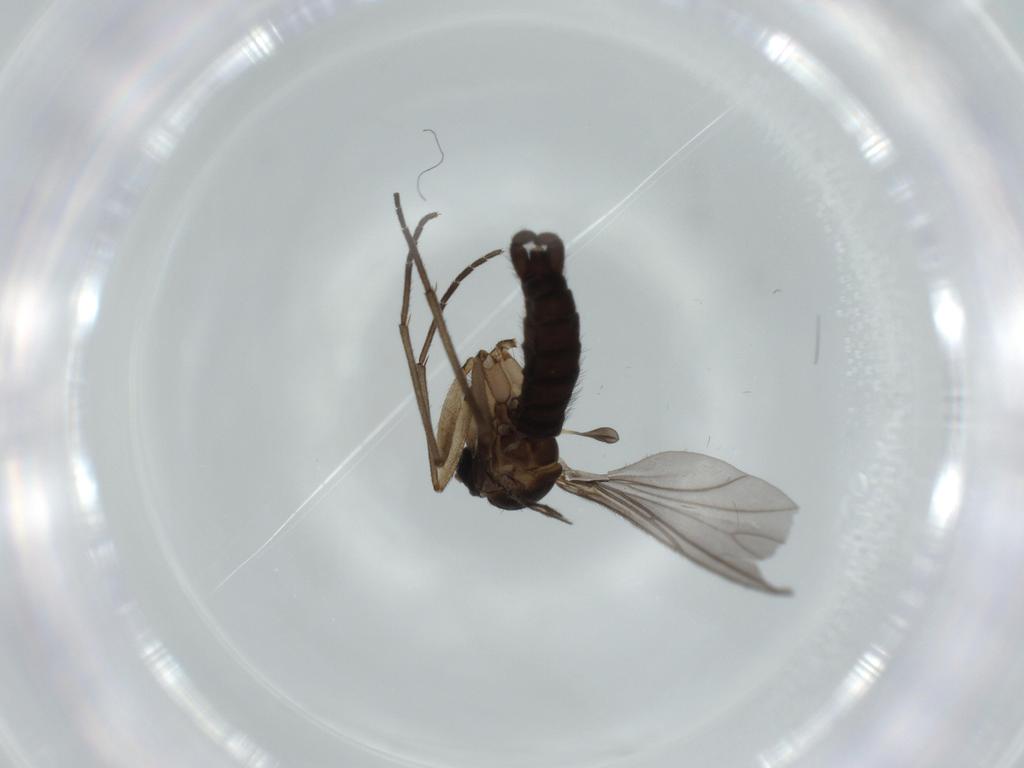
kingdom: Animalia
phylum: Arthropoda
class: Insecta
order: Diptera
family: Sciaridae
